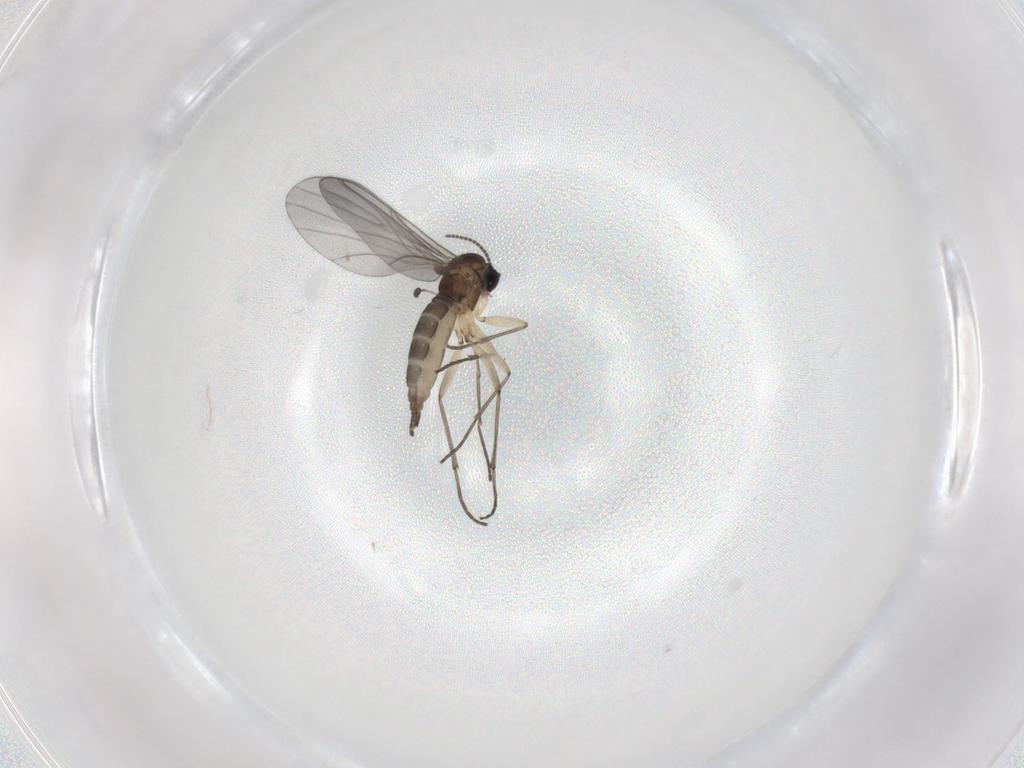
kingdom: Animalia
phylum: Arthropoda
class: Insecta
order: Diptera
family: Sciaridae
